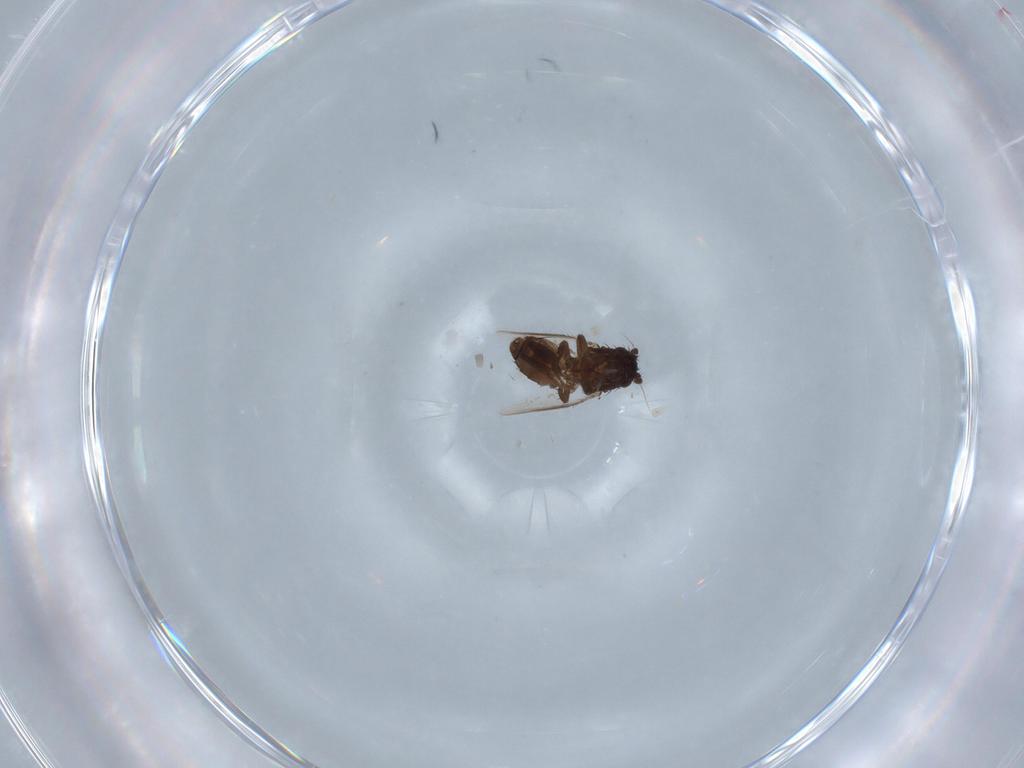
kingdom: Animalia
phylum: Arthropoda
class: Insecta
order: Diptera
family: Sphaeroceridae
